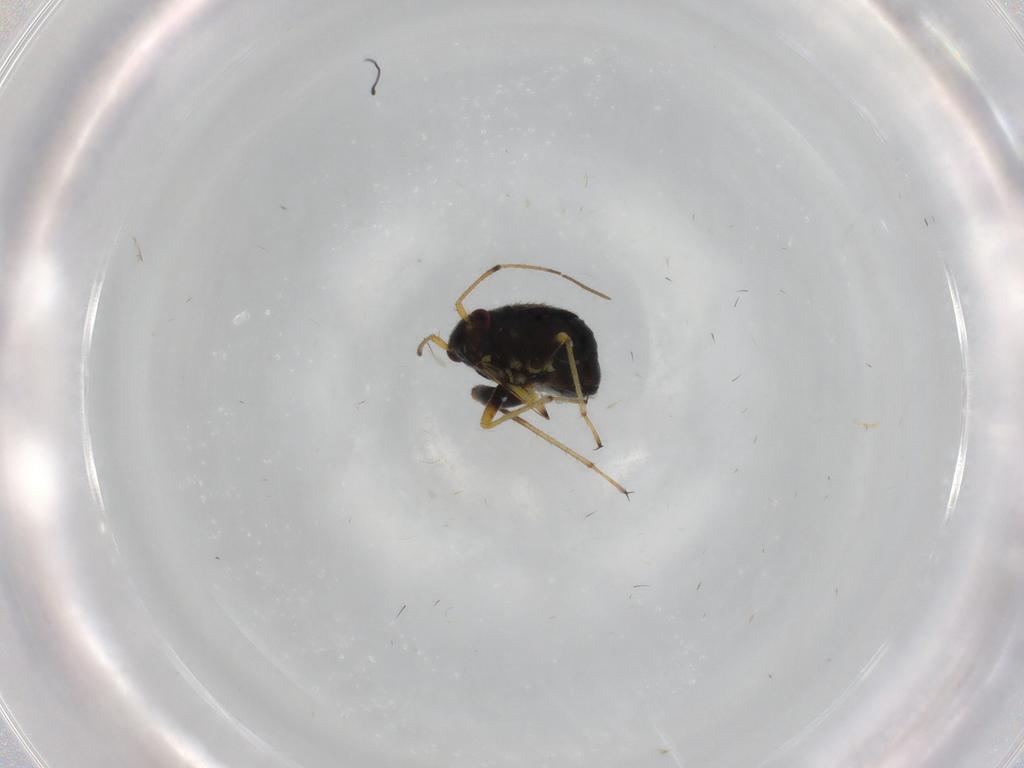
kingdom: Animalia
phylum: Arthropoda
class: Insecta
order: Hemiptera
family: Miridae
